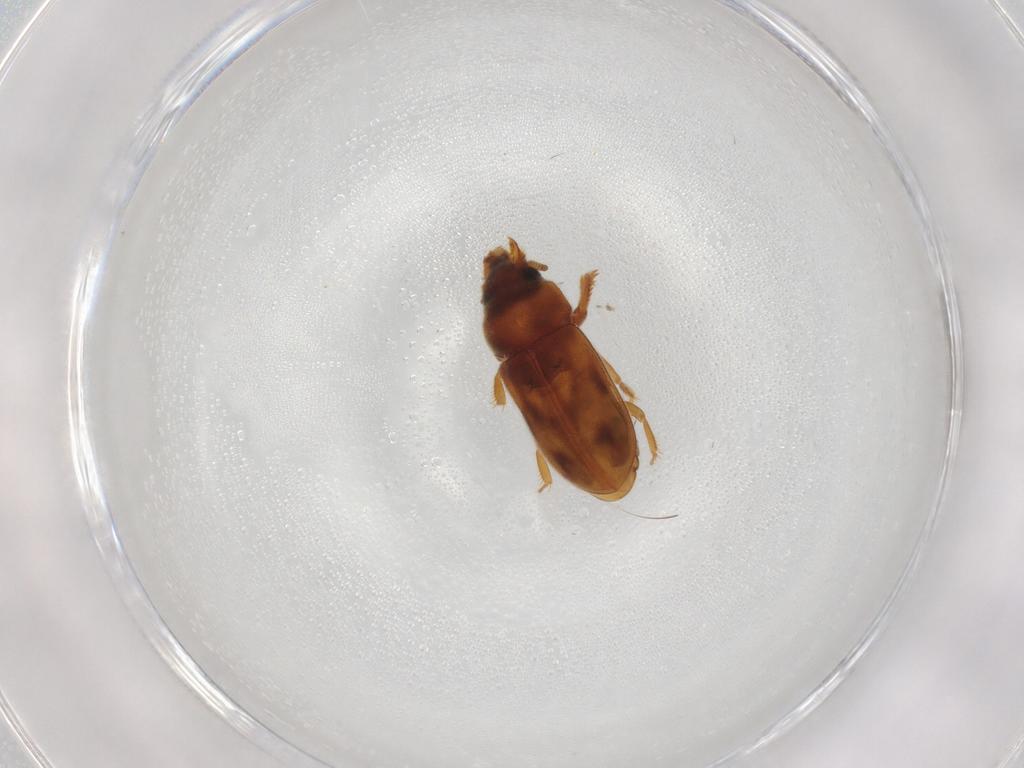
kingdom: Animalia
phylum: Arthropoda
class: Insecta
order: Coleoptera
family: Heteroceridae
